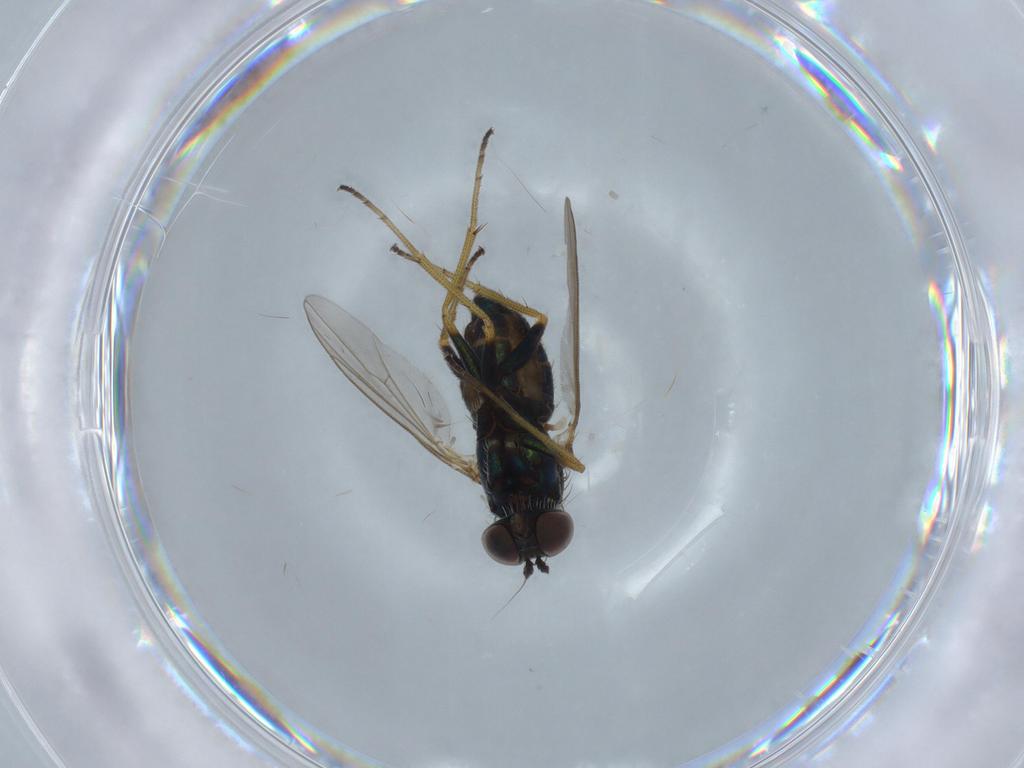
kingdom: Animalia
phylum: Arthropoda
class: Insecta
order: Diptera
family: Dolichopodidae
